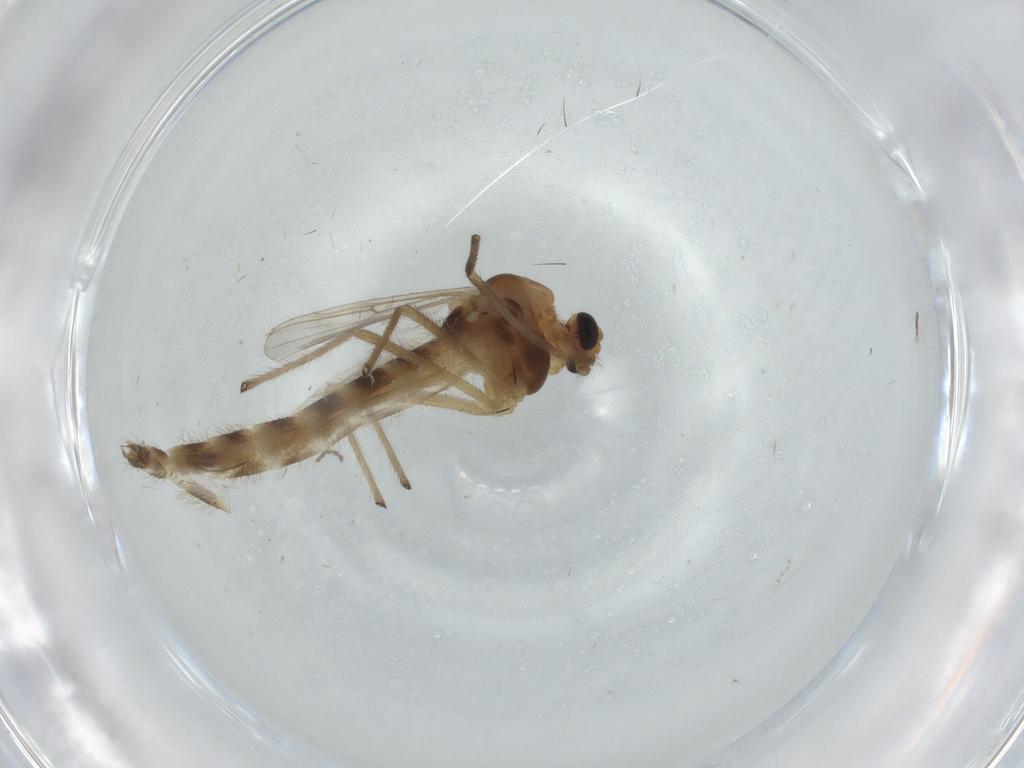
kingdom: Animalia
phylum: Arthropoda
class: Insecta
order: Diptera
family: Chironomidae
